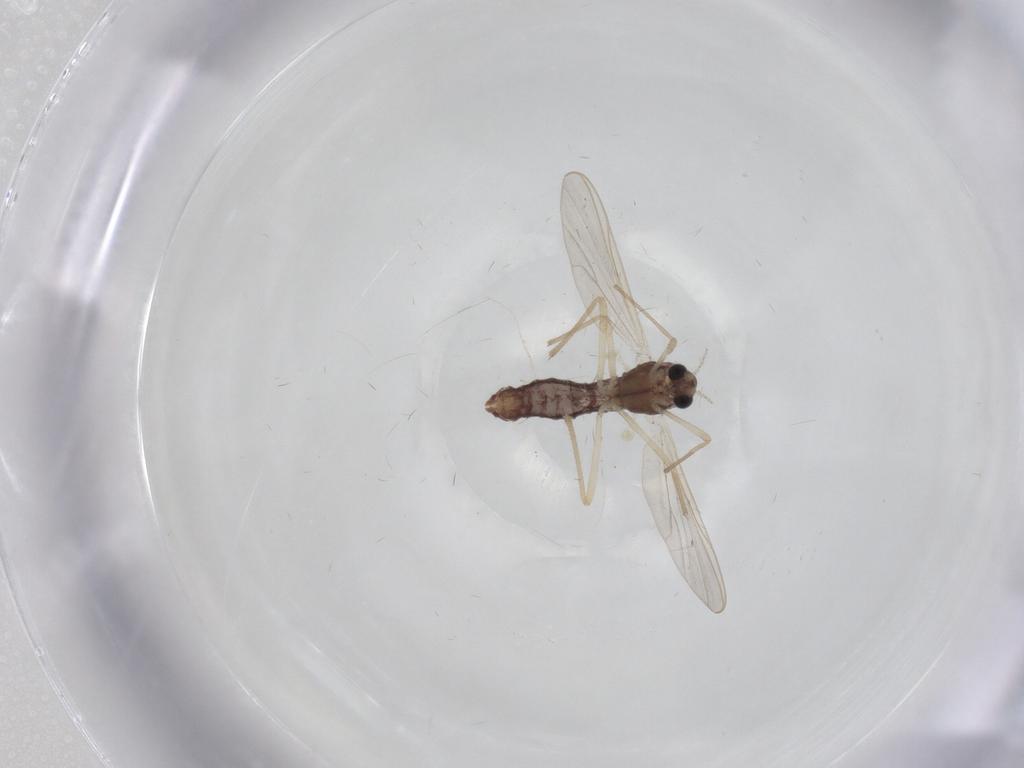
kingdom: Animalia
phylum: Arthropoda
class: Insecta
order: Diptera
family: Chironomidae
